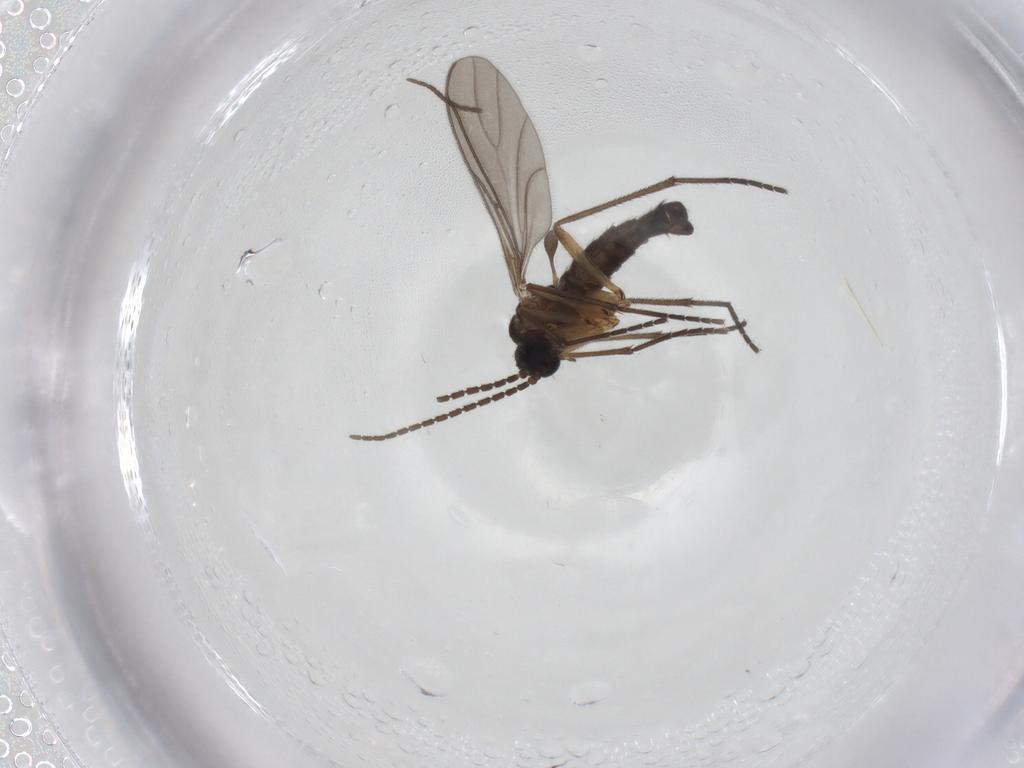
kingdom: Animalia
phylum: Arthropoda
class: Insecta
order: Diptera
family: Sciaridae
